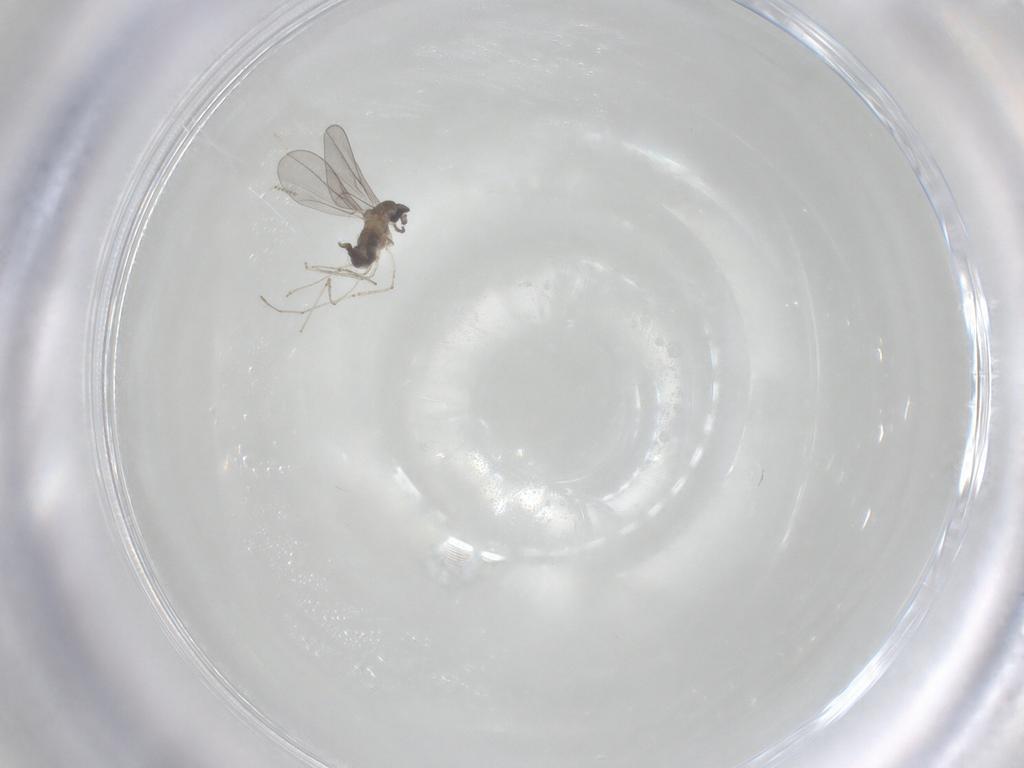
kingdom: Animalia
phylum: Arthropoda
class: Insecta
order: Diptera
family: Cecidomyiidae
